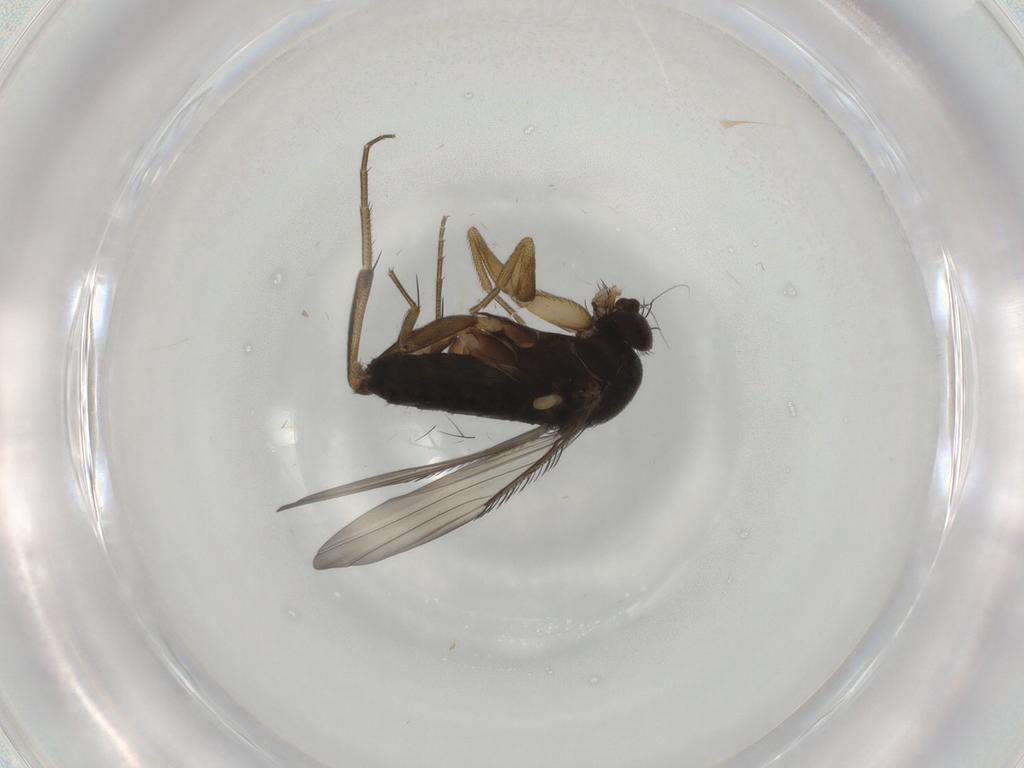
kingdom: Animalia
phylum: Arthropoda
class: Insecta
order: Diptera
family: Phoridae
